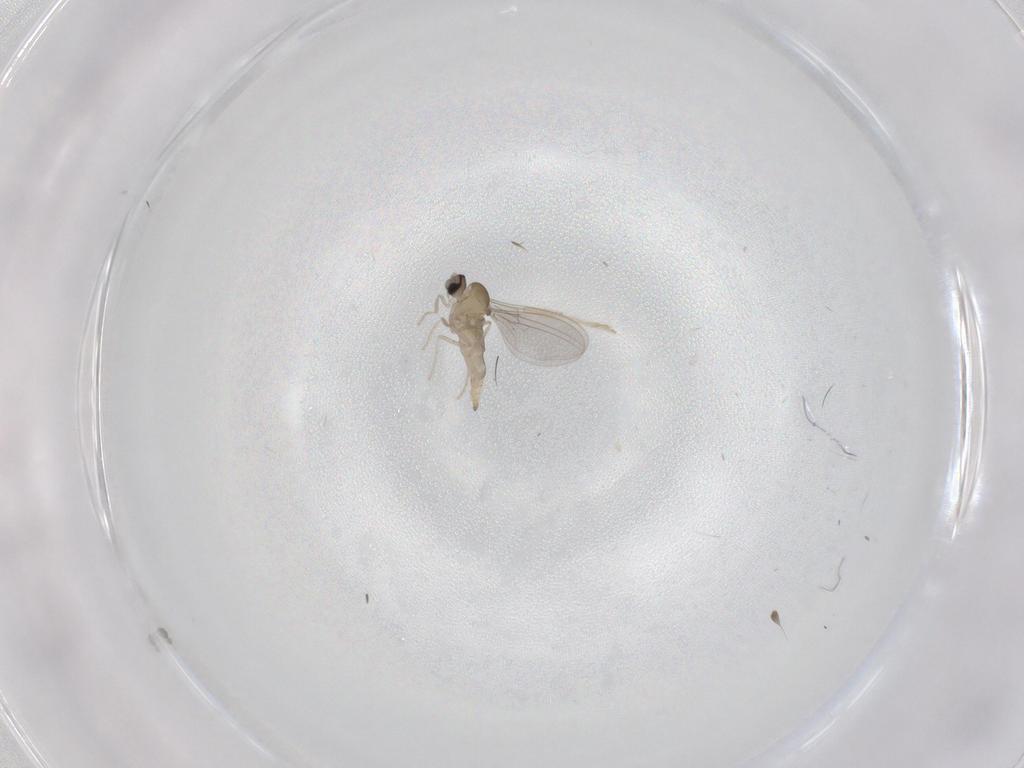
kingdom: Animalia
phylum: Arthropoda
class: Insecta
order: Diptera
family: Cecidomyiidae
